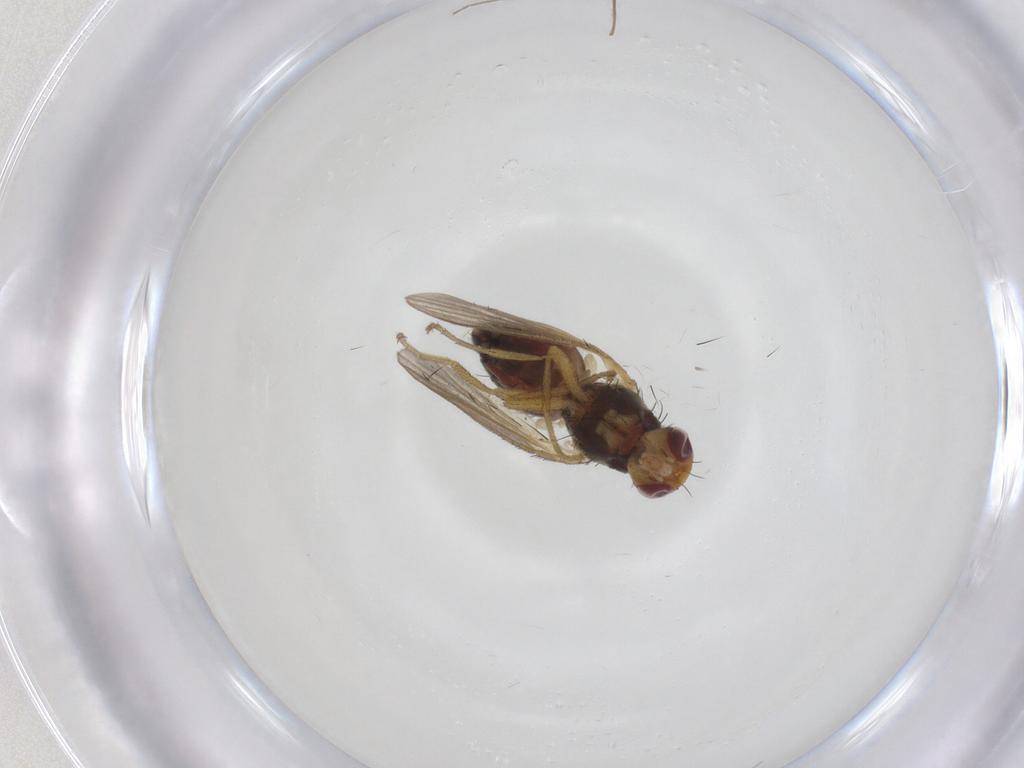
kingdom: Animalia
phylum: Arthropoda
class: Insecta
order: Diptera
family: Heleomyzidae
